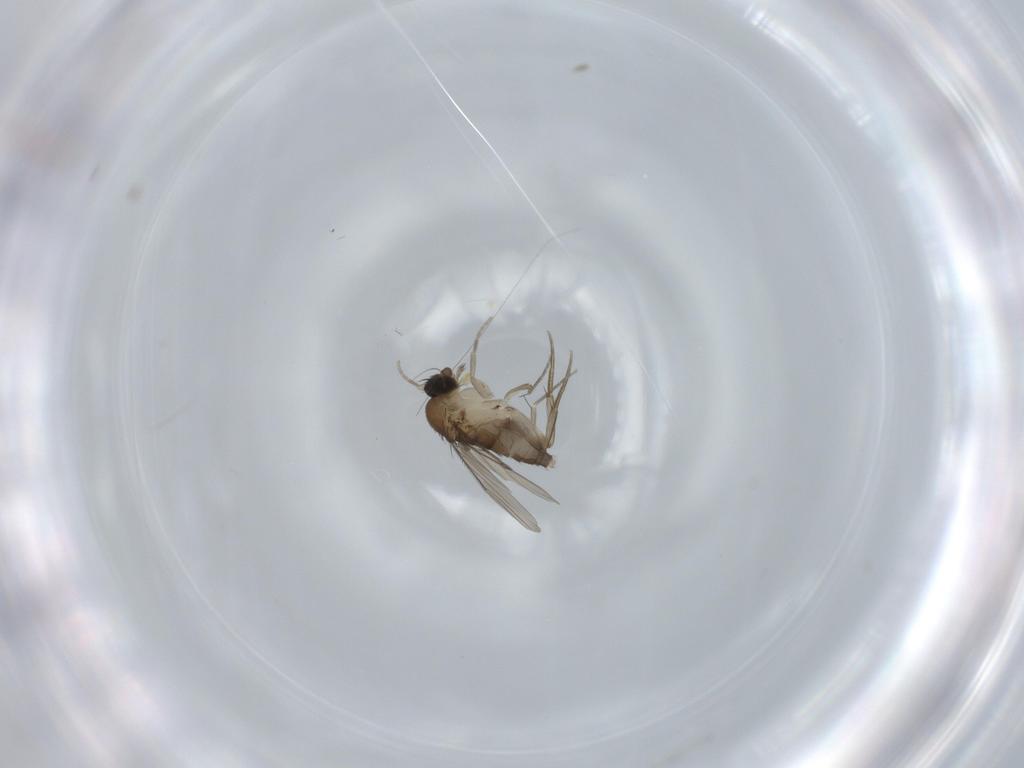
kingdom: Animalia
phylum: Arthropoda
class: Insecta
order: Diptera
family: Phoridae
